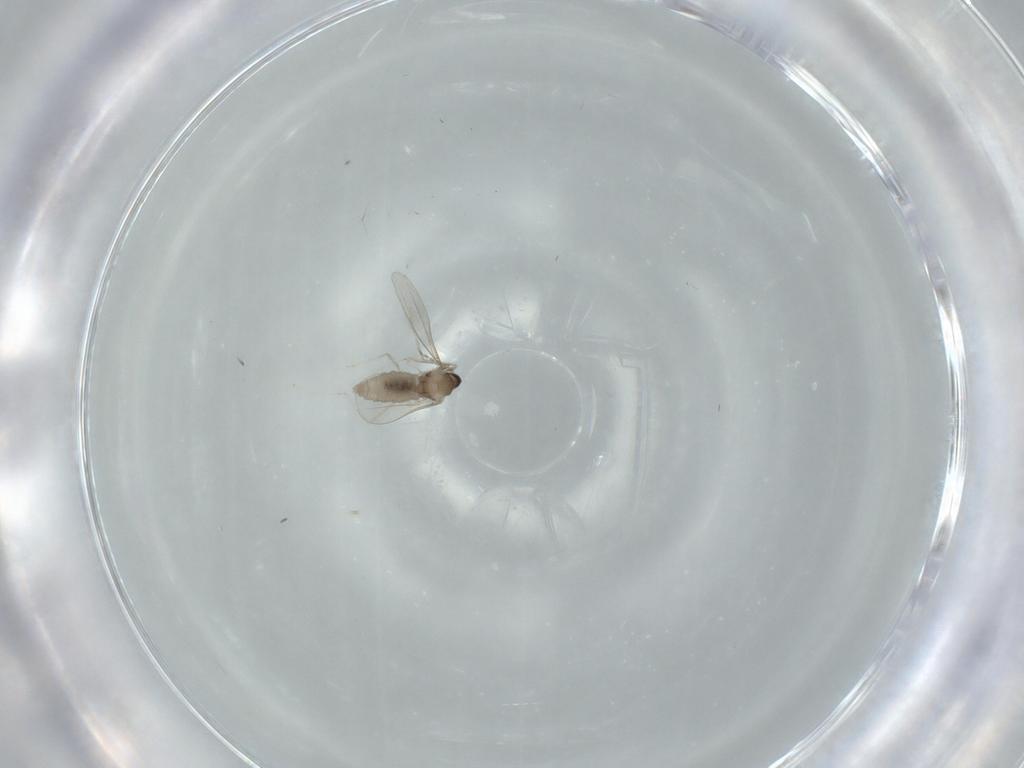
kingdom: Animalia
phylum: Arthropoda
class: Insecta
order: Diptera
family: Cecidomyiidae
